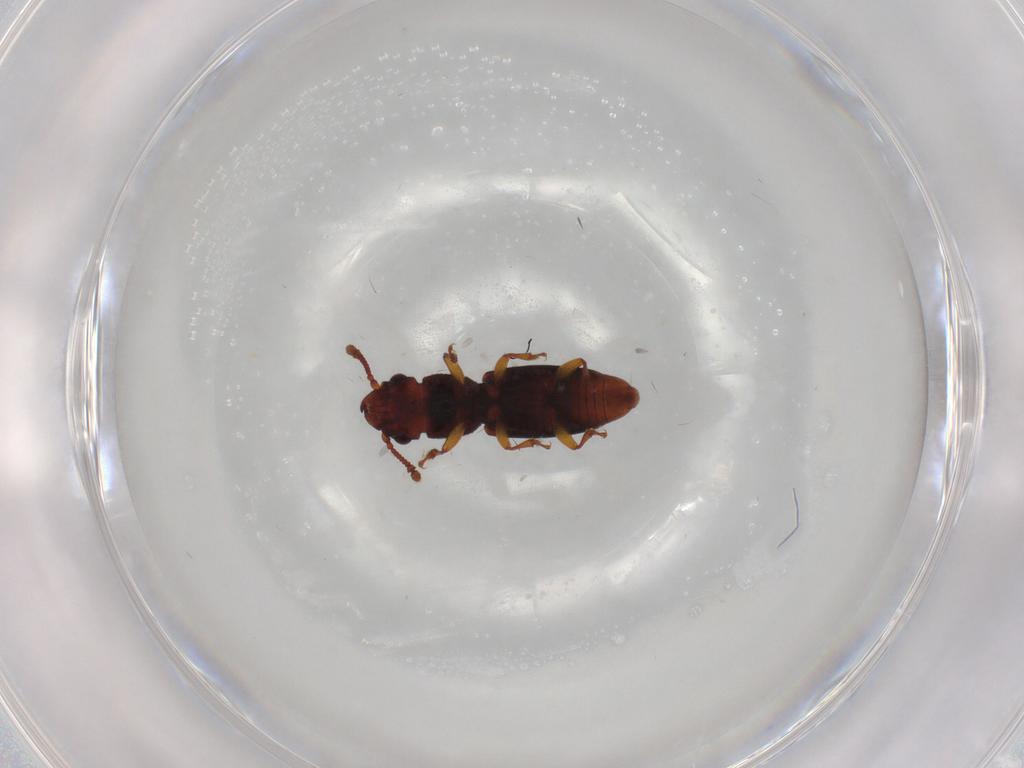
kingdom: Animalia
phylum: Arthropoda
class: Insecta
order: Coleoptera
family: Monotomidae
